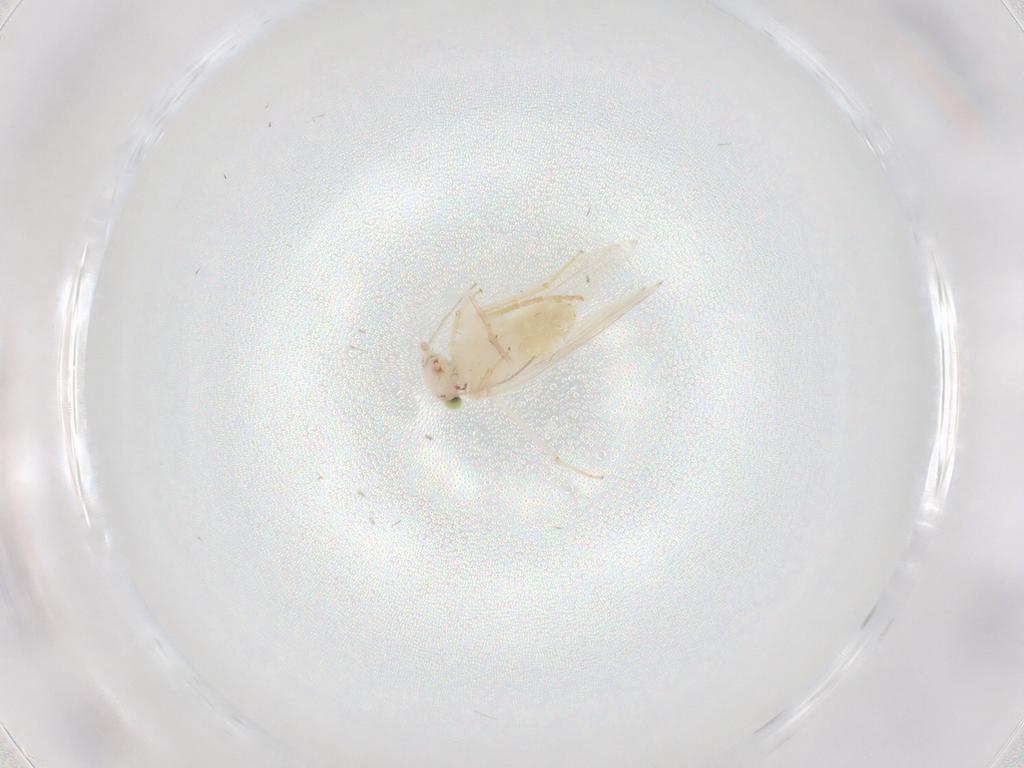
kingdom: Animalia
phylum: Arthropoda
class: Insecta
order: Psocodea
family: Lepidopsocidae
